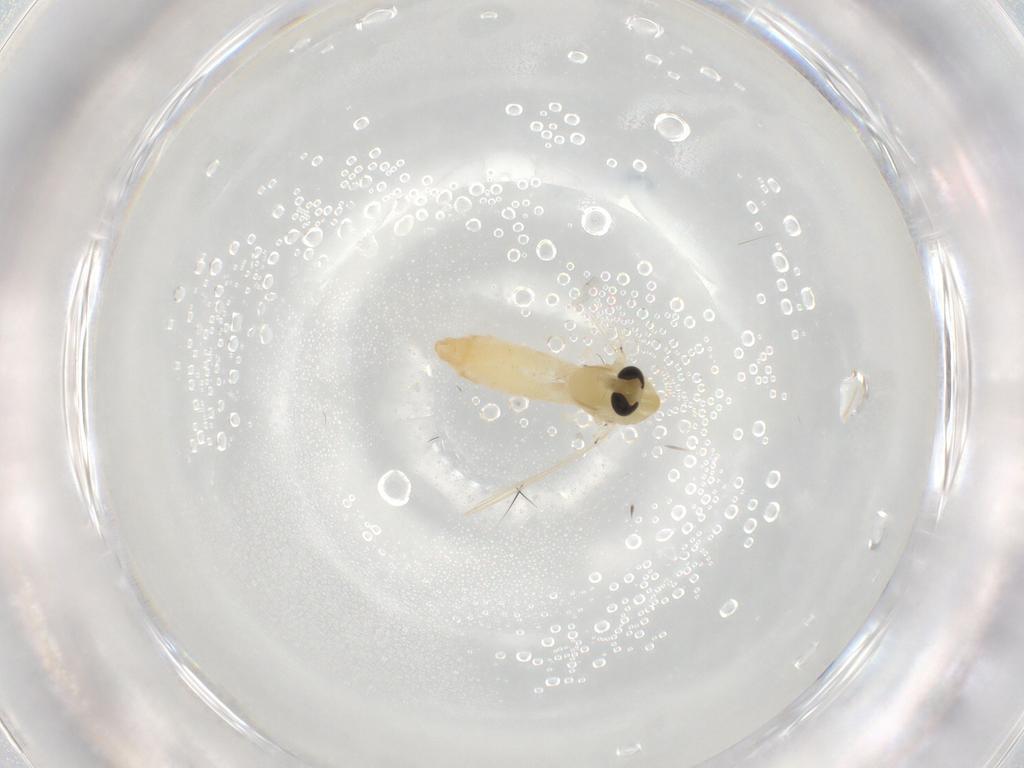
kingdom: Animalia
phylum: Arthropoda
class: Insecta
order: Diptera
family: Chironomidae
